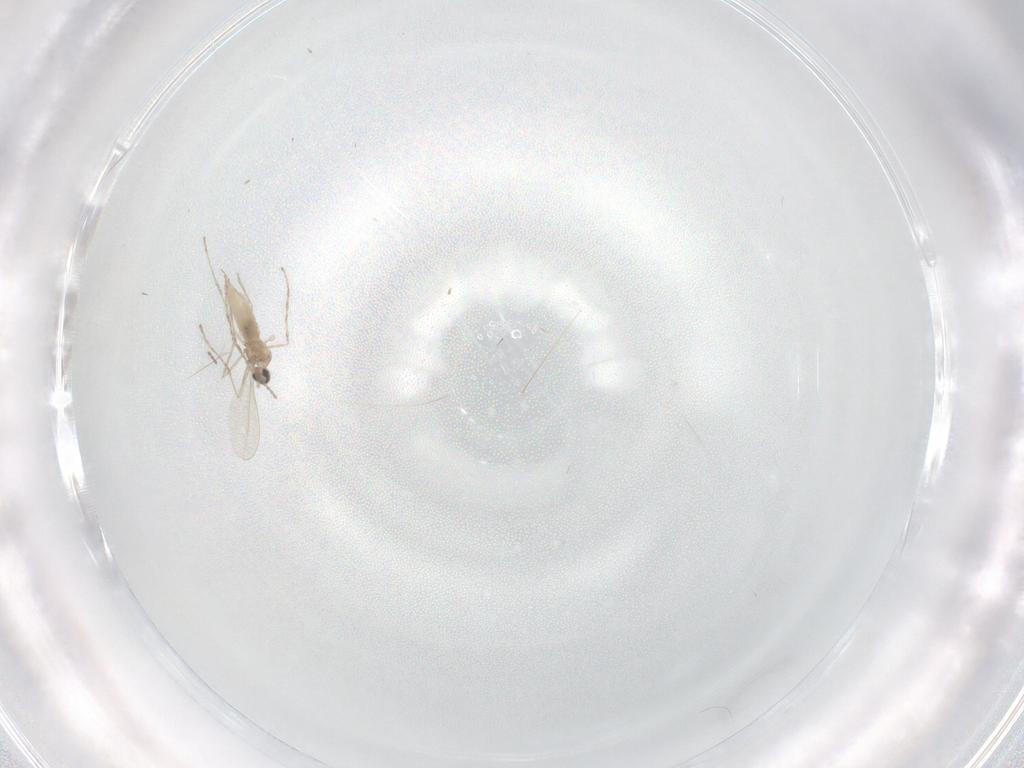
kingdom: Animalia
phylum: Arthropoda
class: Insecta
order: Diptera
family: Cecidomyiidae
